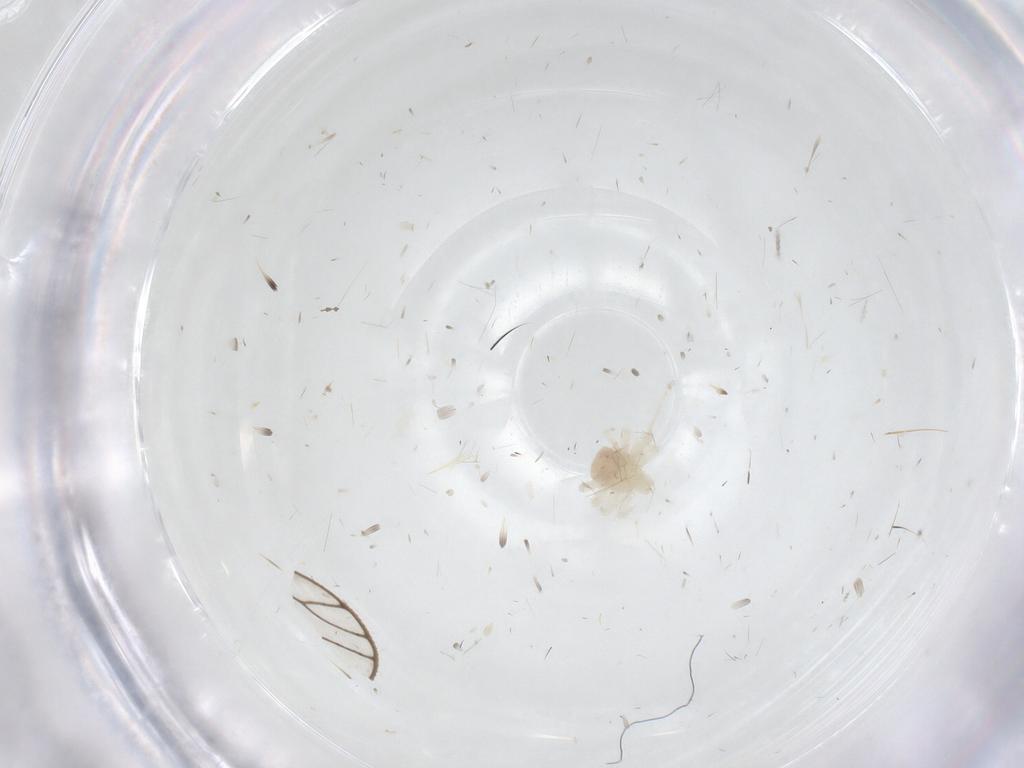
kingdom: Animalia
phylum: Arthropoda
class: Arachnida
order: Trombidiformes
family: Anystidae
